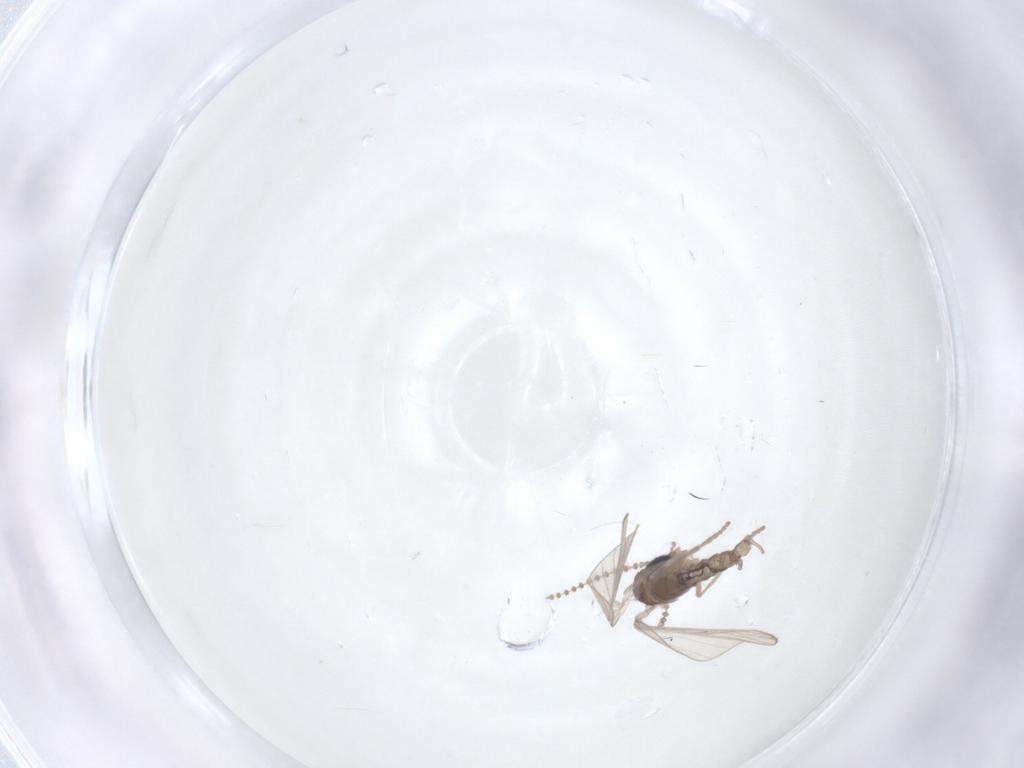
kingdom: Animalia
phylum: Arthropoda
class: Insecta
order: Diptera
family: Psychodidae
